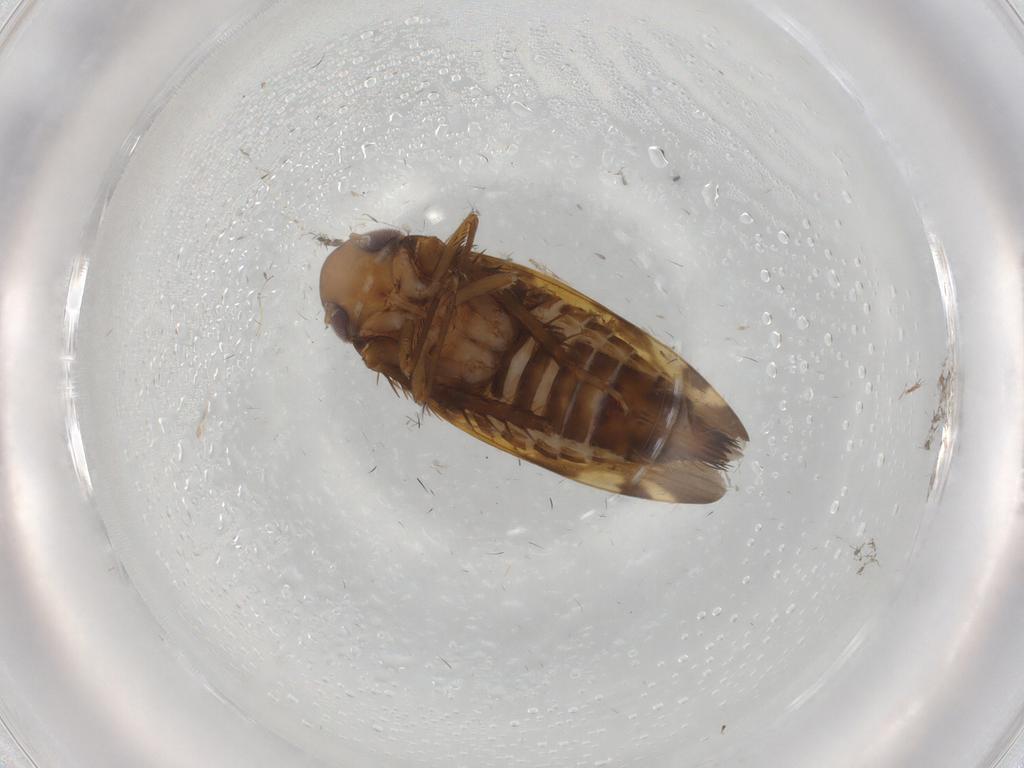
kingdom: Animalia
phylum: Arthropoda
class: Insecta
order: Hemiptera
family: Cicadellidae
